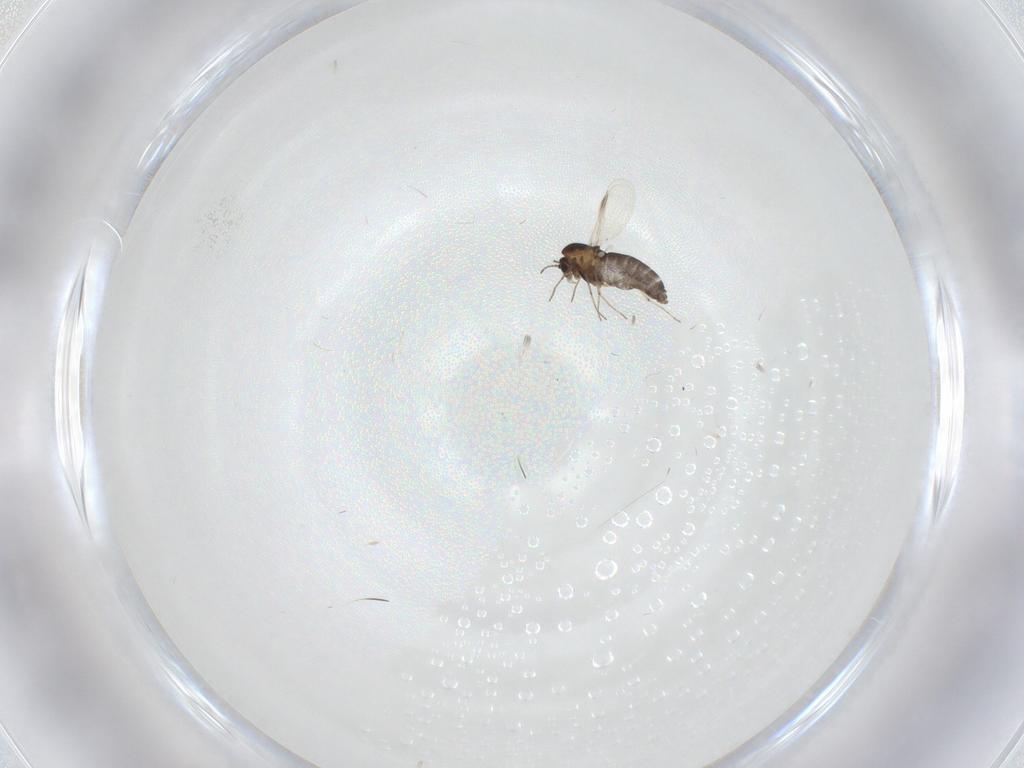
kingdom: Animalia
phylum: Arthropoda
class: Insecta
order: Diptera
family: Chironomidae
